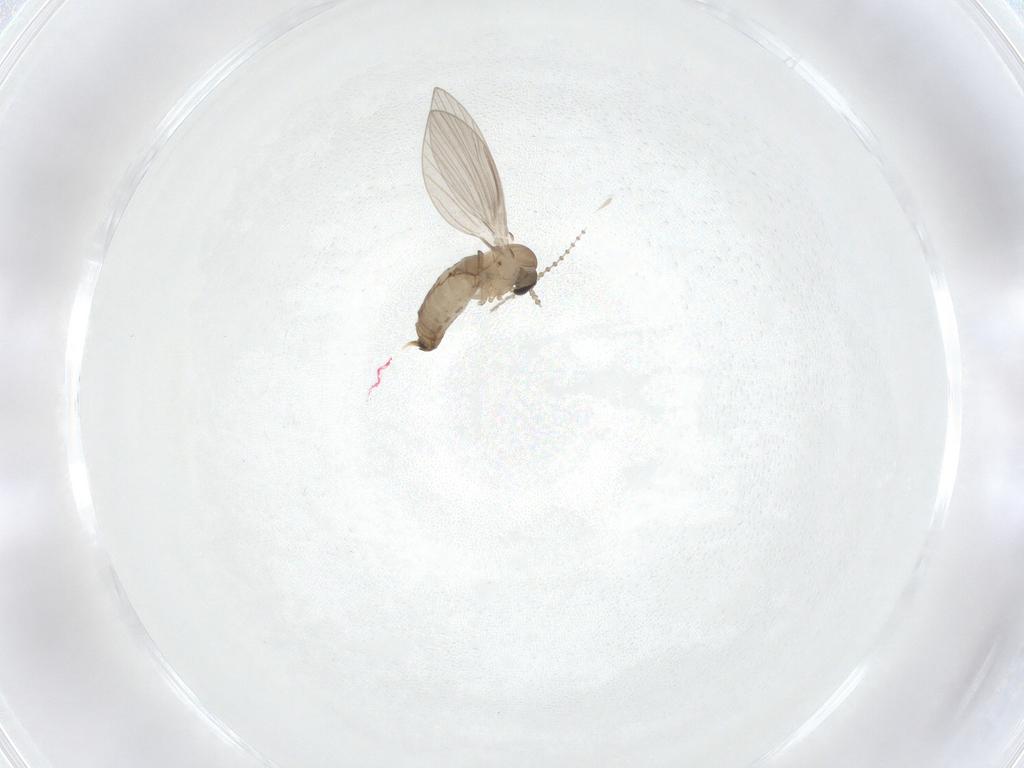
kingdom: Animalia
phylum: Arthropoda
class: Insecta
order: Diptera
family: Psychodidae
